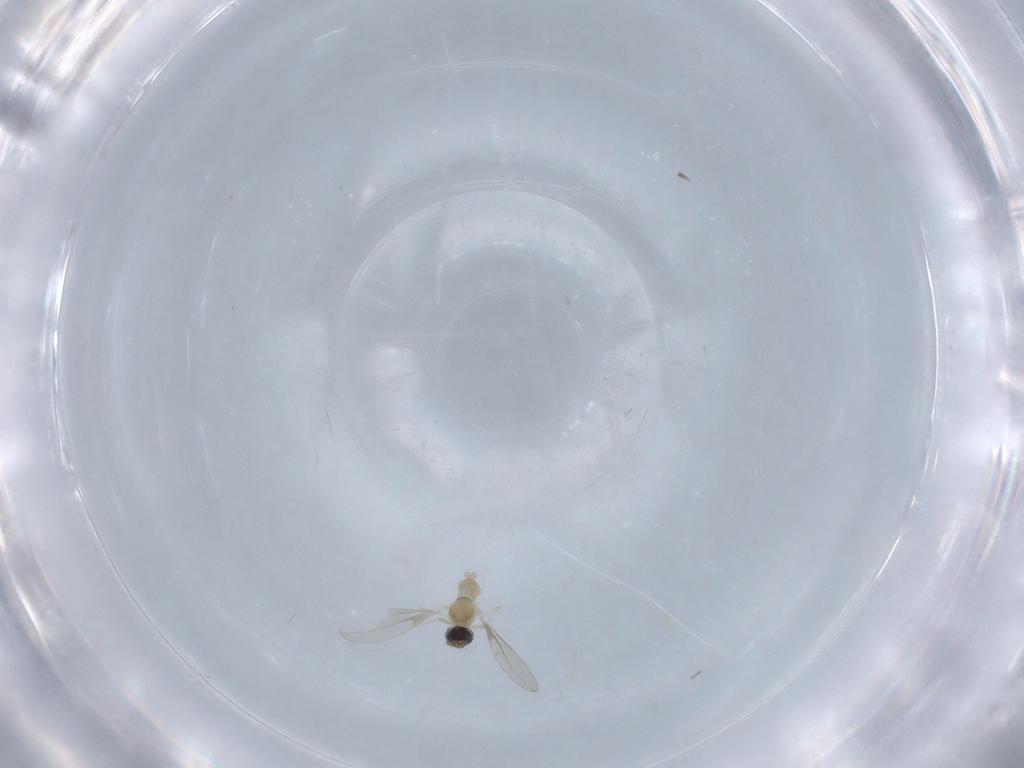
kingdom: Animalia
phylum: Arthropoda
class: Insecta
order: Diptera
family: Cecidomyiidae
